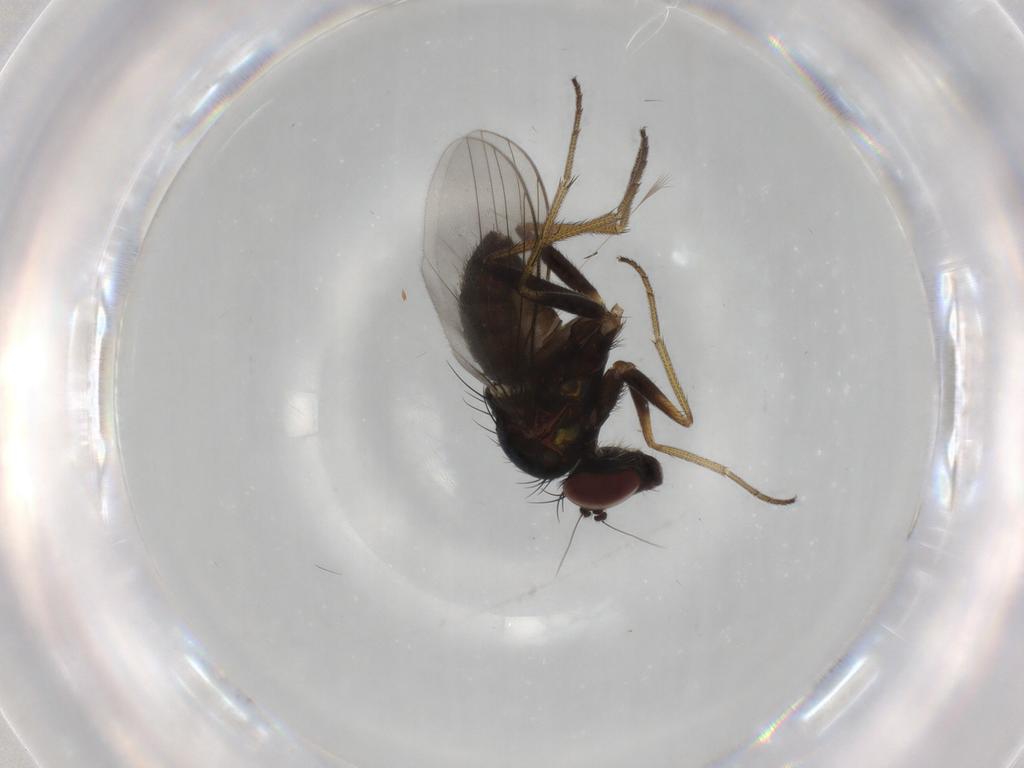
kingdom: Animalia
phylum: Arthropoda
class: Insecta
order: Diptera
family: Dolichopodidae
